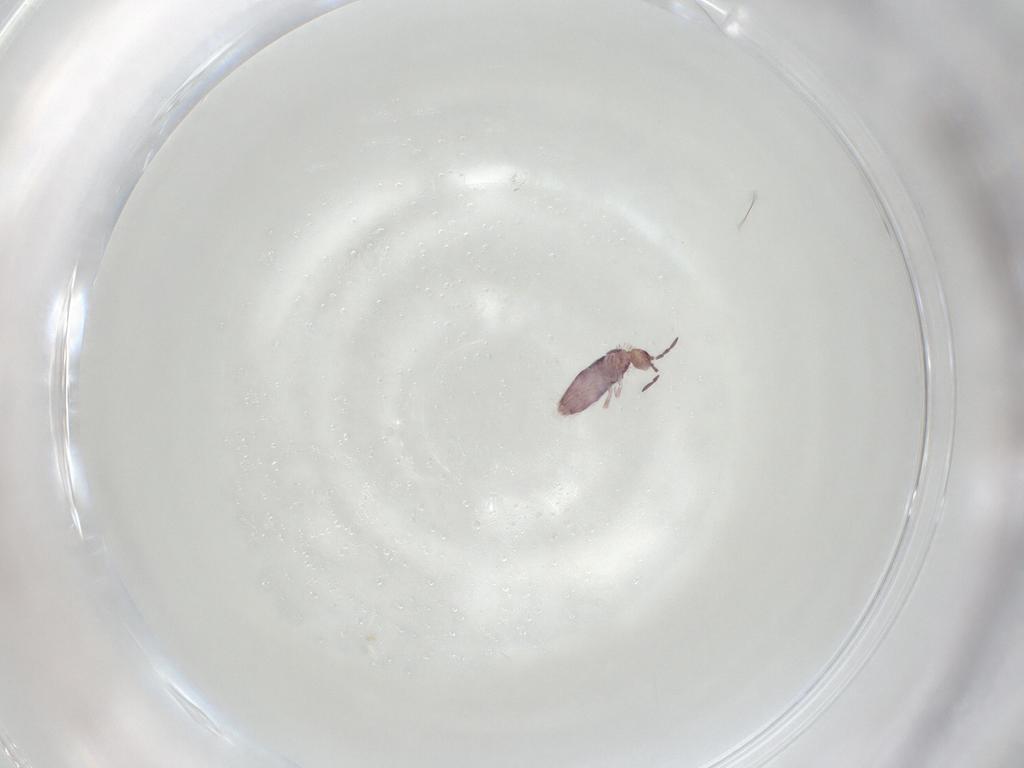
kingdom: Animalia
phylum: Arthropoda
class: Collembola
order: Entomobryomorpha
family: Entomobryidae
